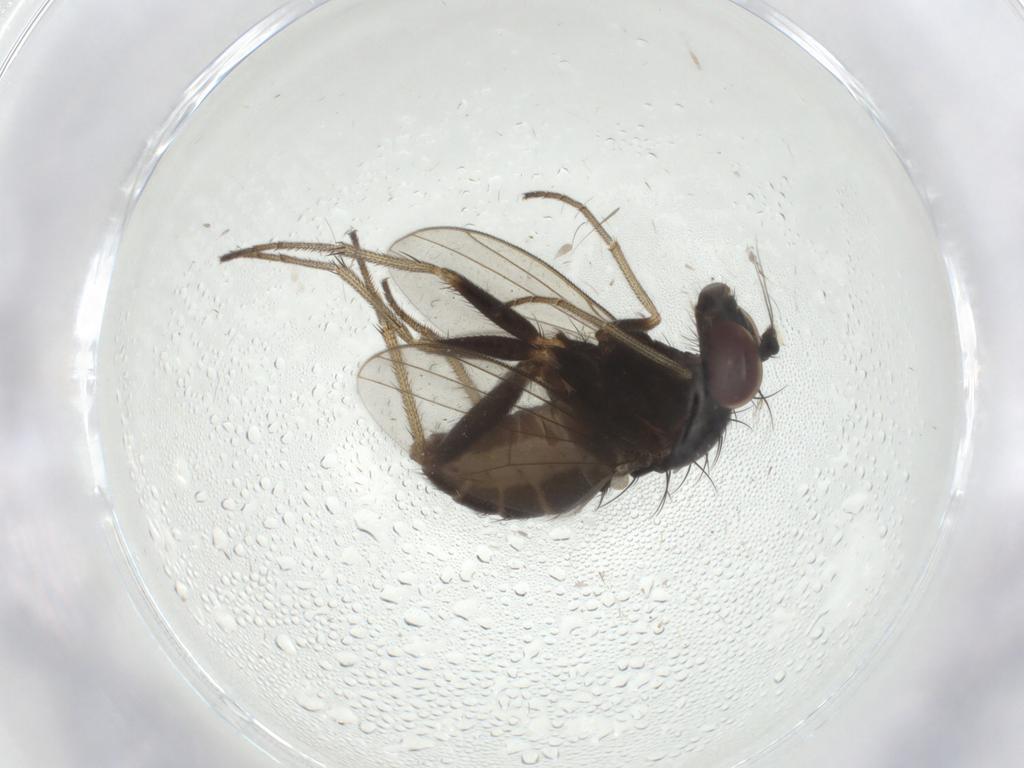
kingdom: Animalia
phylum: Arthropoda
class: Insecta
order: Diptera
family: Dolichopodidae
